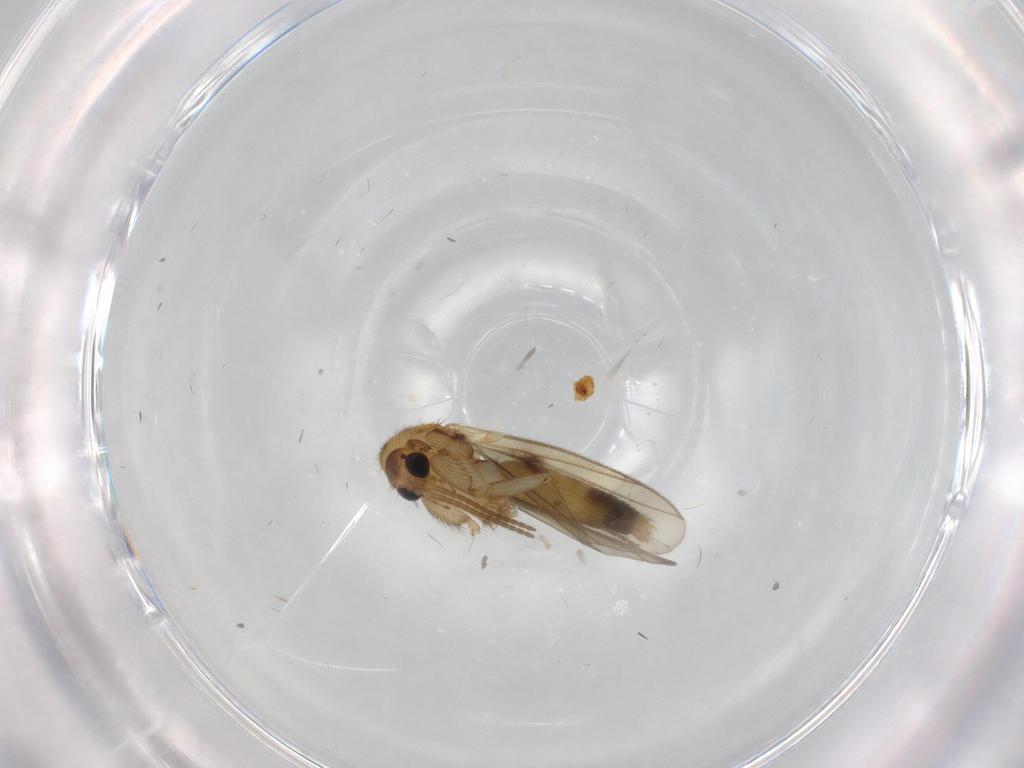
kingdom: Animalia
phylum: Arthropoda
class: Insecta
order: Diptera
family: Mycetophilidae
